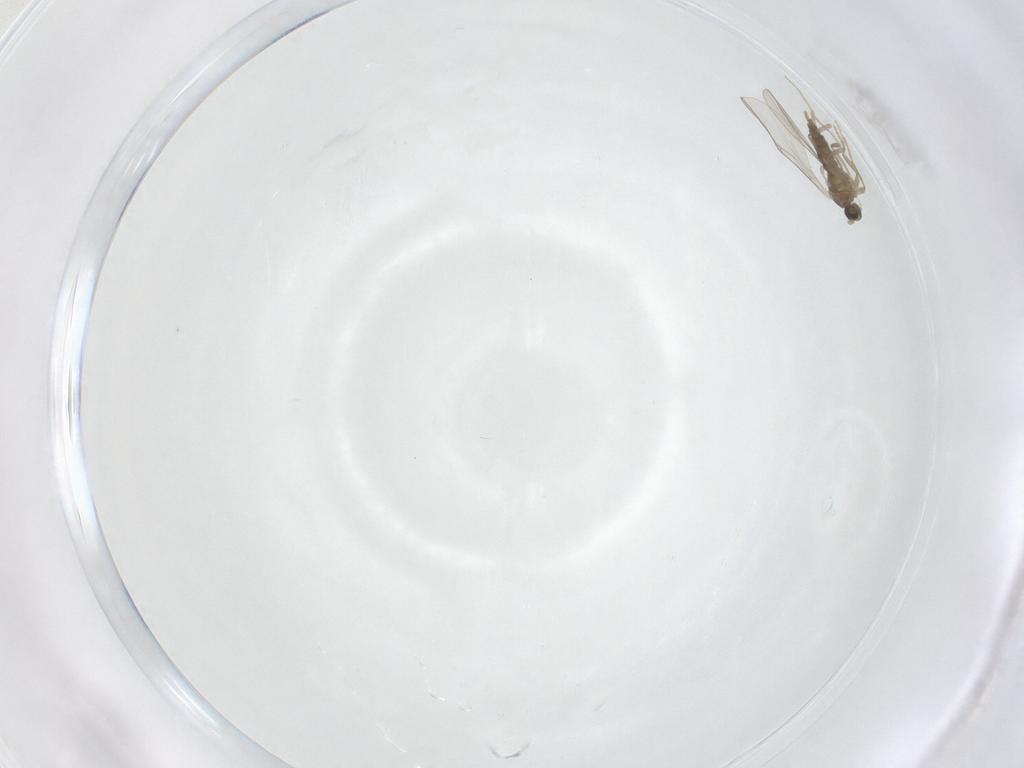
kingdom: Animalia
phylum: Arthropoda
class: Insecta
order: Diptera
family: Cecidomyiidae
